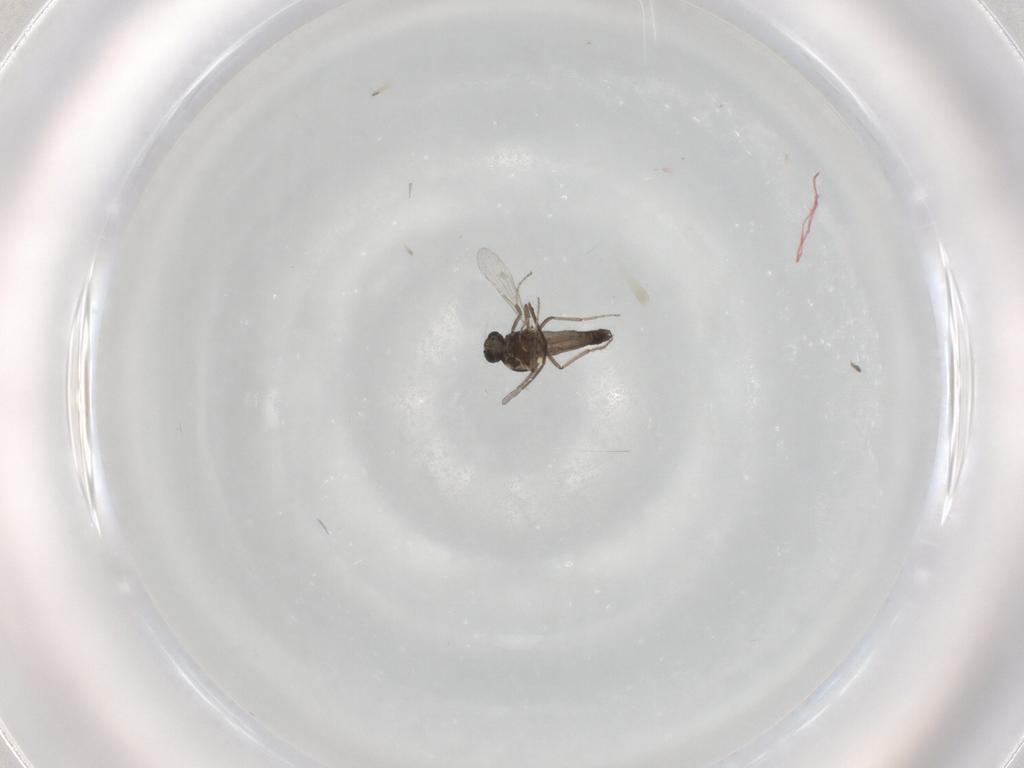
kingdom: Animalia
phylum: Arthropoda
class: Insecta
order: Diptera
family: Ceratopogonidae
